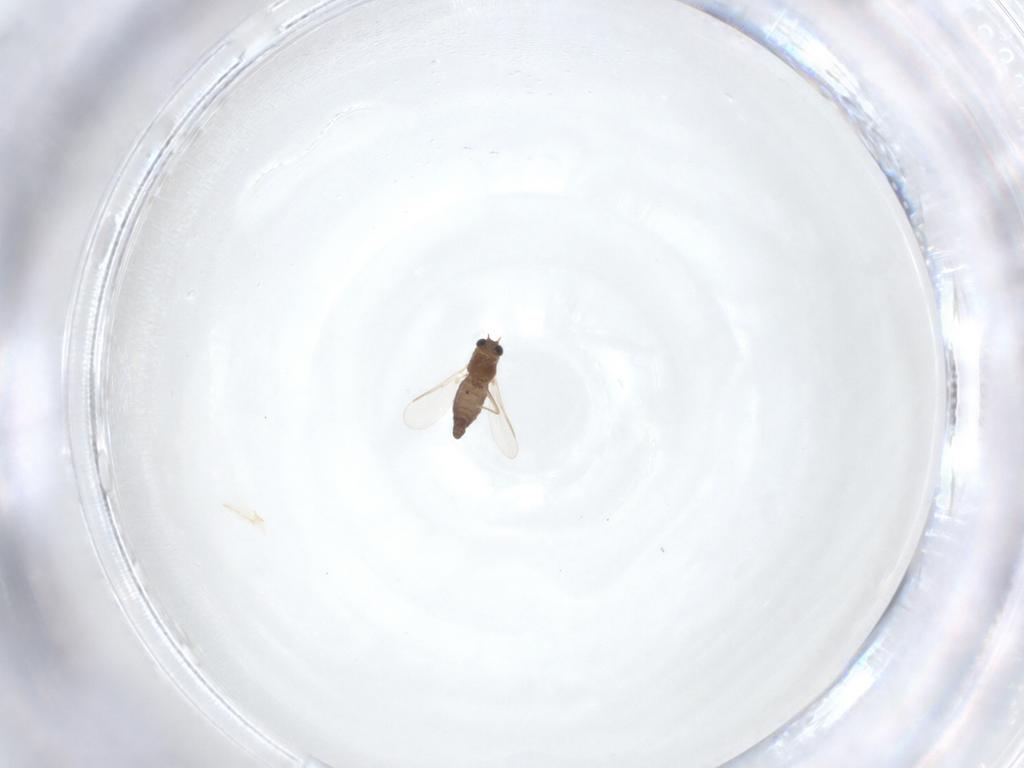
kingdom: Animalia
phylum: Arthropoda
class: Insecta
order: Diptera
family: Chironomidae
